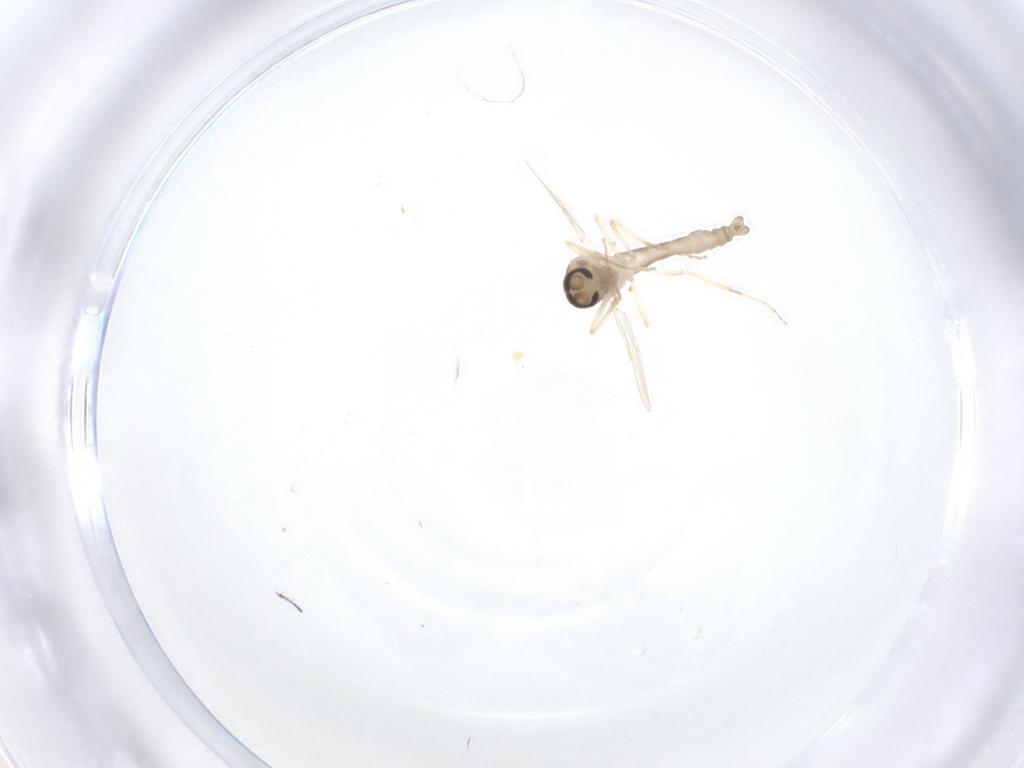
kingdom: Animalia
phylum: Arthropoda
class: Insecta
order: Diptera
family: Ceratopogonidae
